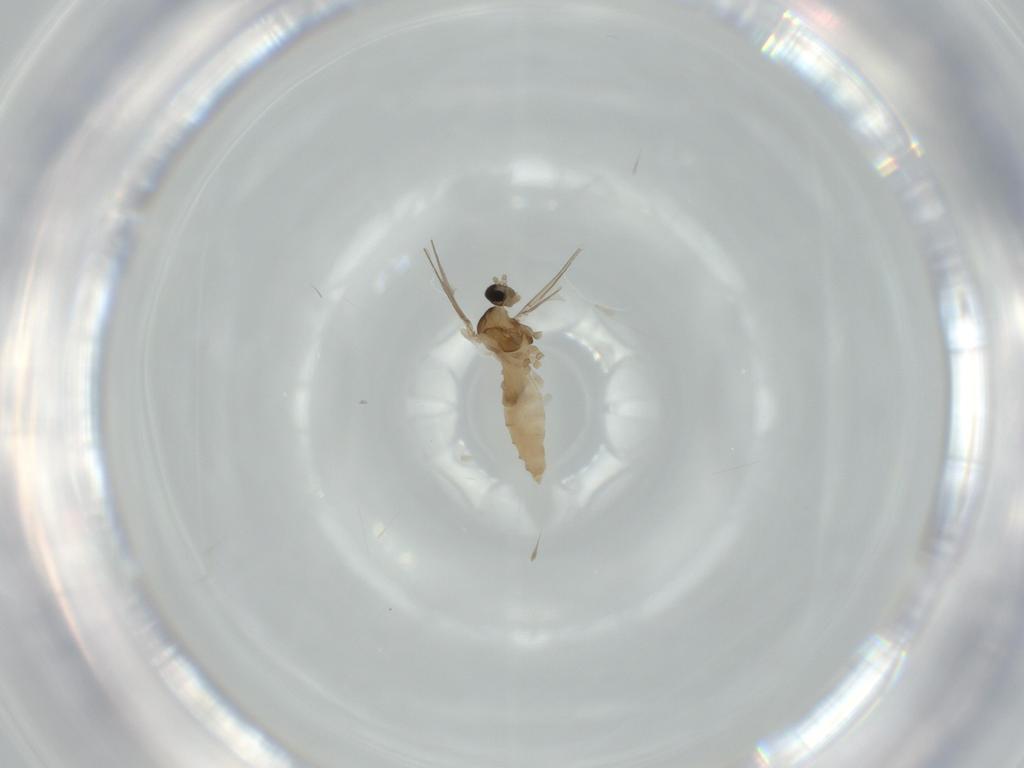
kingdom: Animalia
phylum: Arthropoda
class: Insecta
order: Diptera
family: Cecidomyiidae
